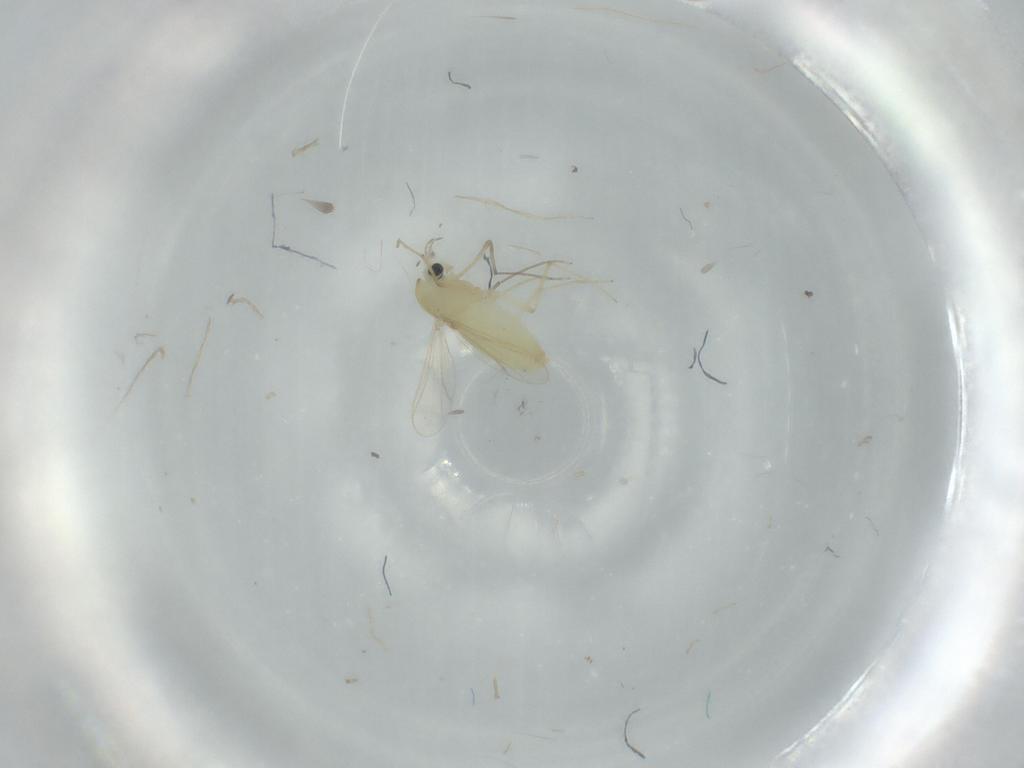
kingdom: Animalia
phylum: Arthropoda
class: Insecta
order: Diptera
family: Chironomidae
